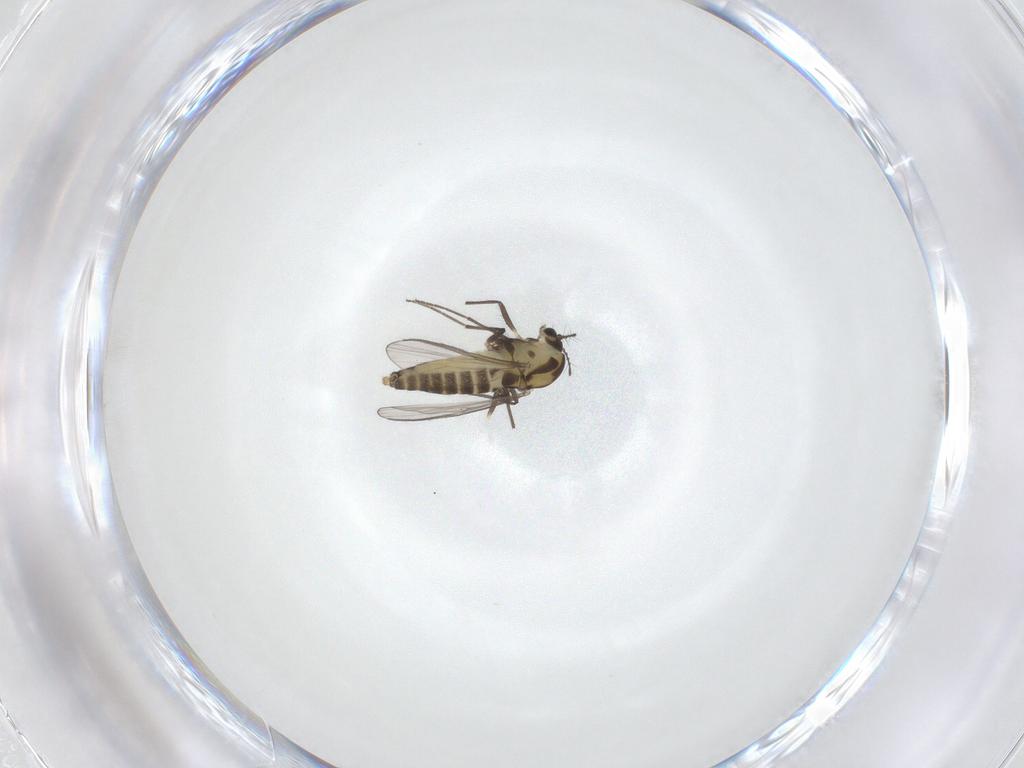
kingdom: Animalia
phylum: Arthropoda
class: Insecta
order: Diptera
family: Chironomidae
